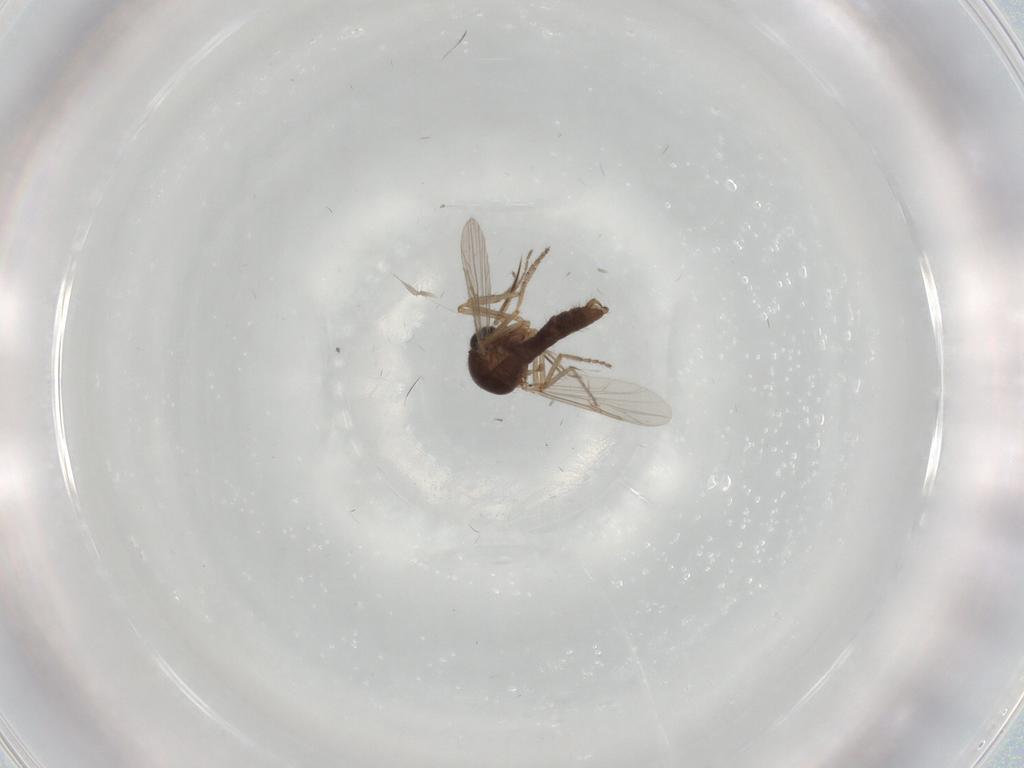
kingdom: Animalia
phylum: Arthropoda
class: Insecta
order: Diptera
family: Ceratopogonidae
